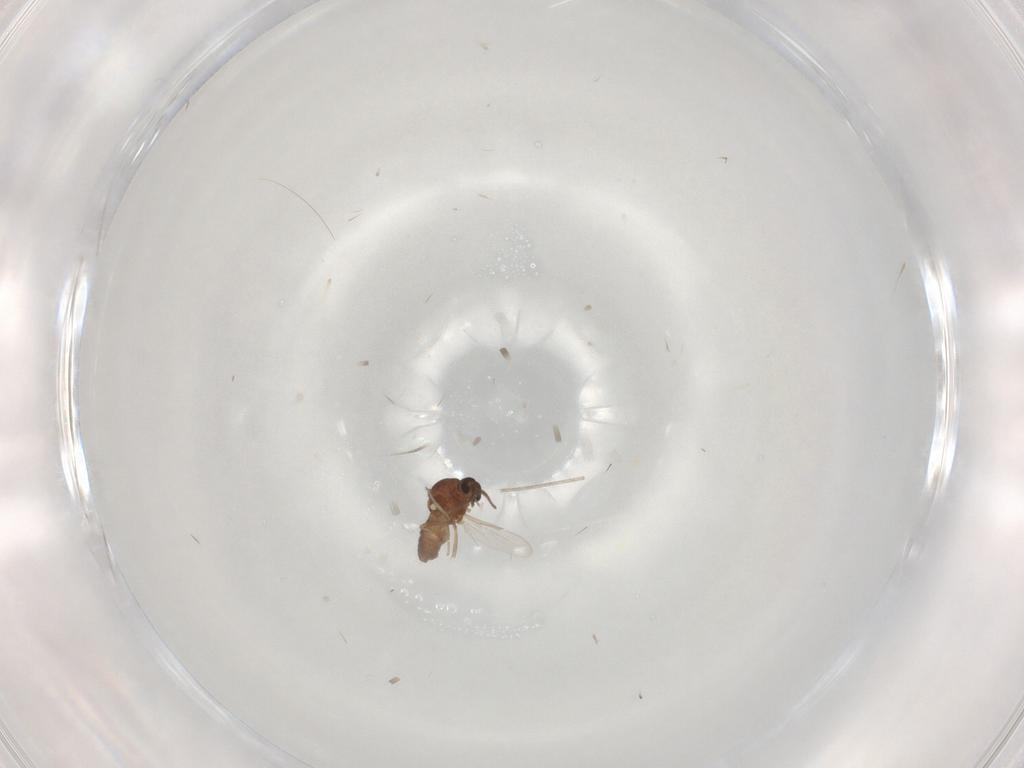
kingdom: Animalia
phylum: Arthropoda
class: Insecta
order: Diptera
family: Ceratopogonidae
